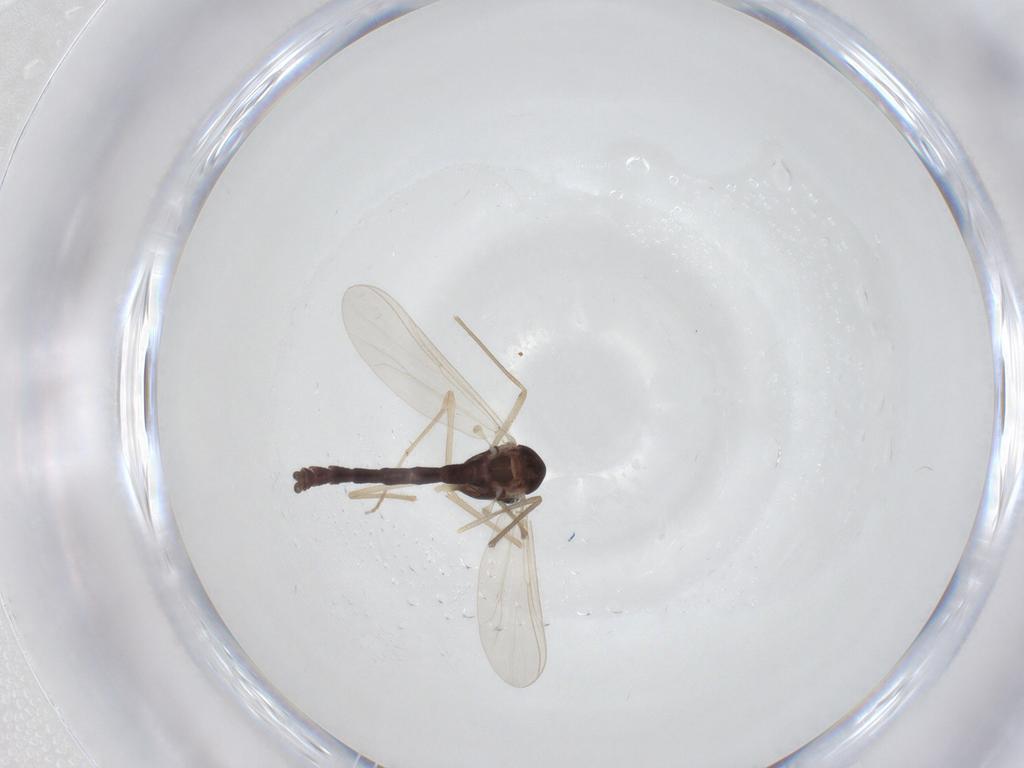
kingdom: Animalia
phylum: Arthropoda
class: Insecta
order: Diptera
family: Chironomidae
